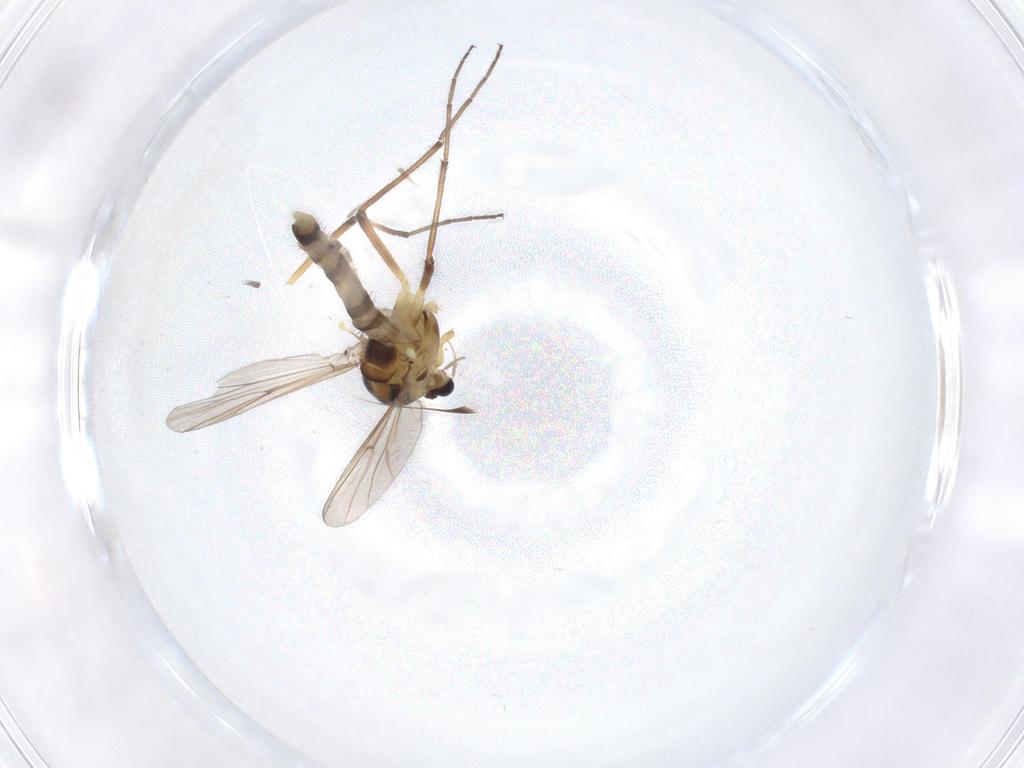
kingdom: Animalia
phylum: Arthropoda
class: Insecta
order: Diptera
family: Chironomidae
